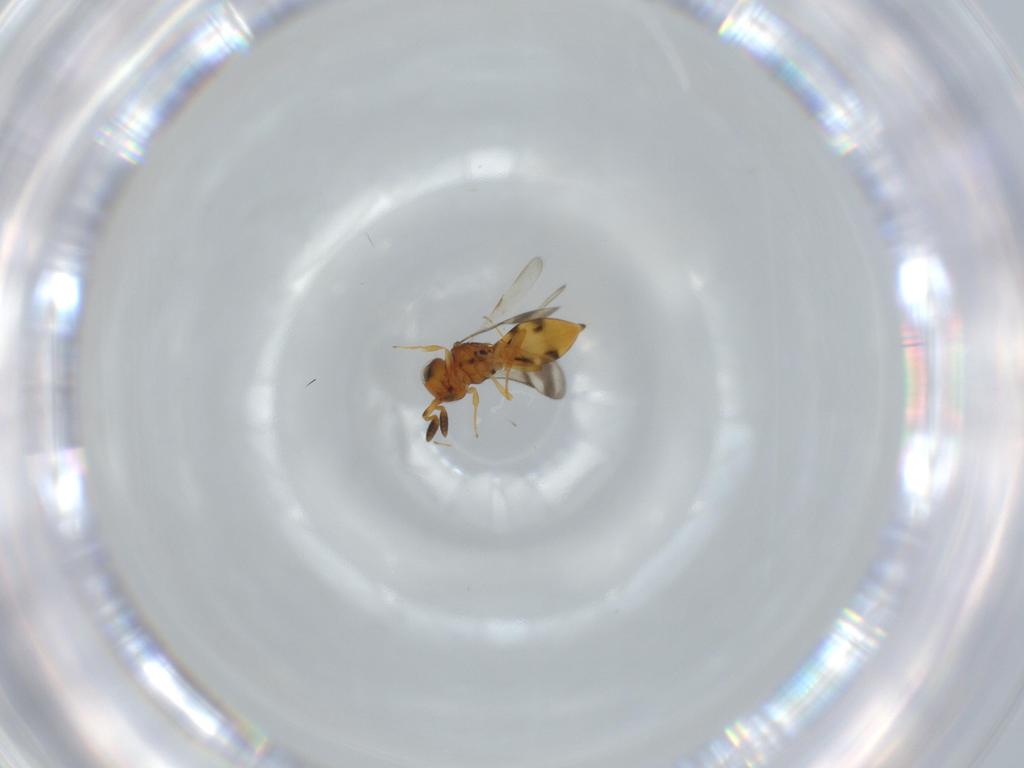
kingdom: Animalia
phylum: Arthropoda
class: Insecta
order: Hymenoptera
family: Scelionidae
